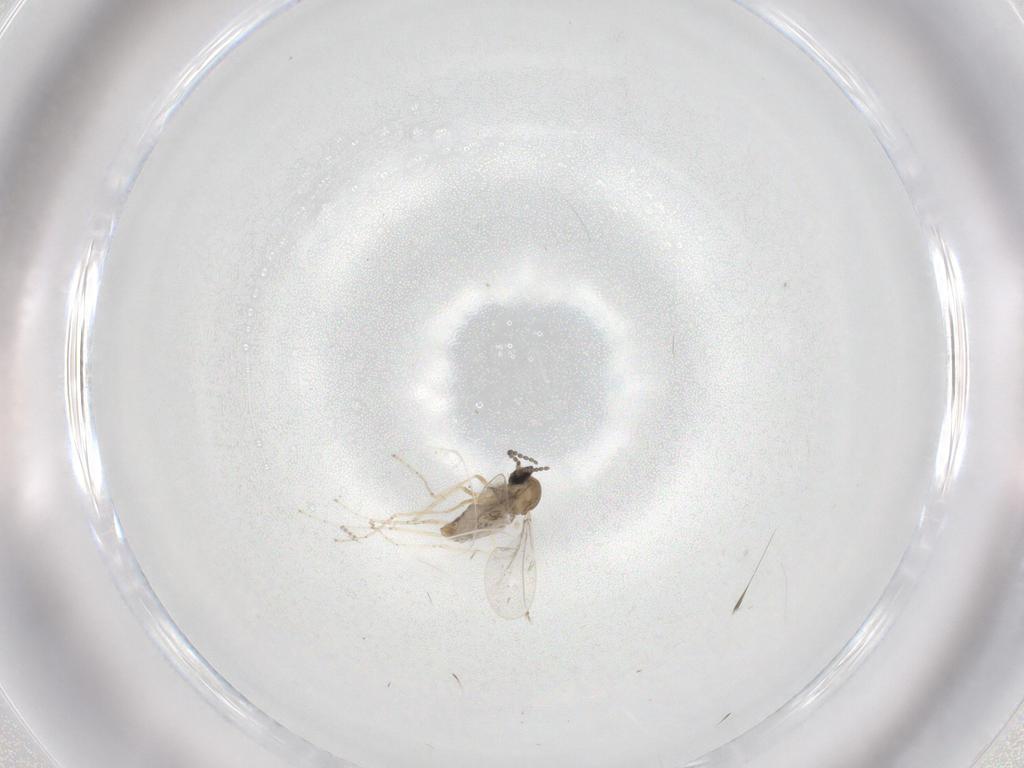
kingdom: Animalia
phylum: Arthropoda
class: Insecta
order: Diptera
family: Cecidomyiidae
